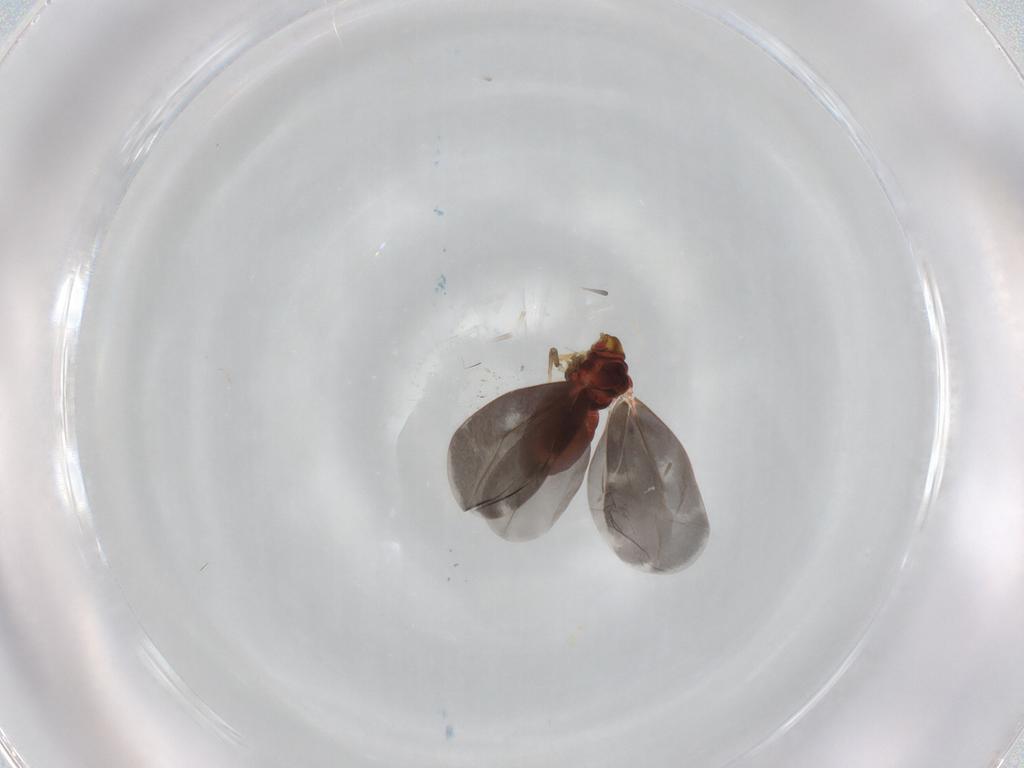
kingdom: Animalia
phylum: Arthropoda
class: Insecta
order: Hemiptera
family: Aleyrodidae
